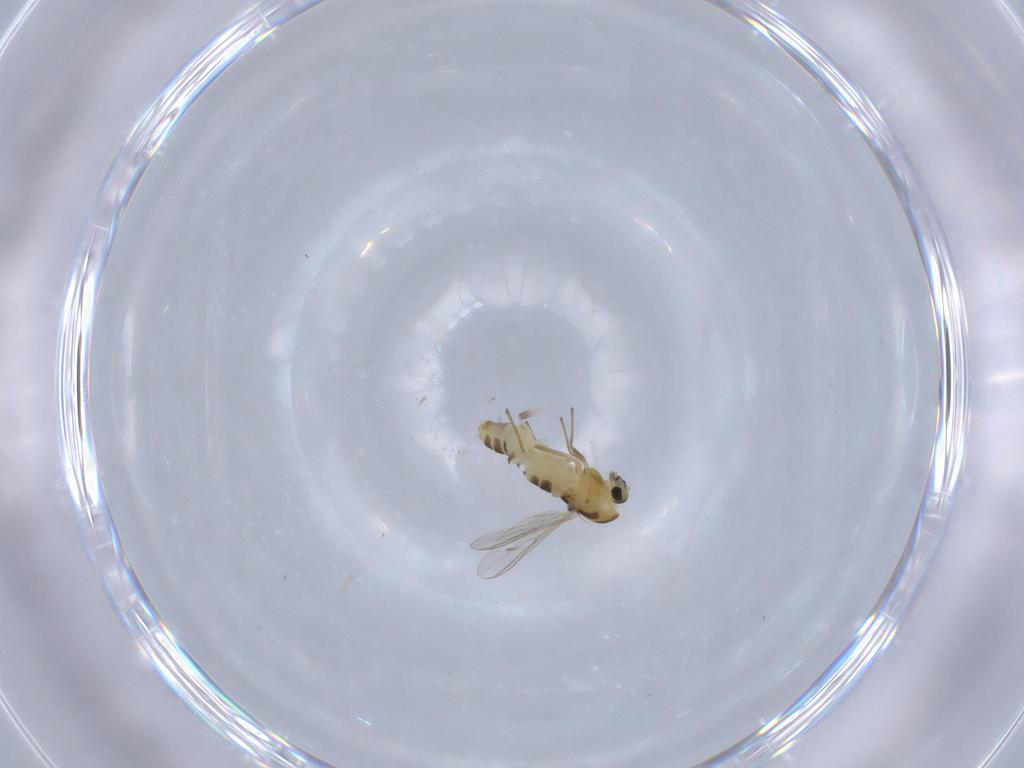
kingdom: Animalia
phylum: Arthropoda
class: Insecta
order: Diptera
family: Chironomidae
